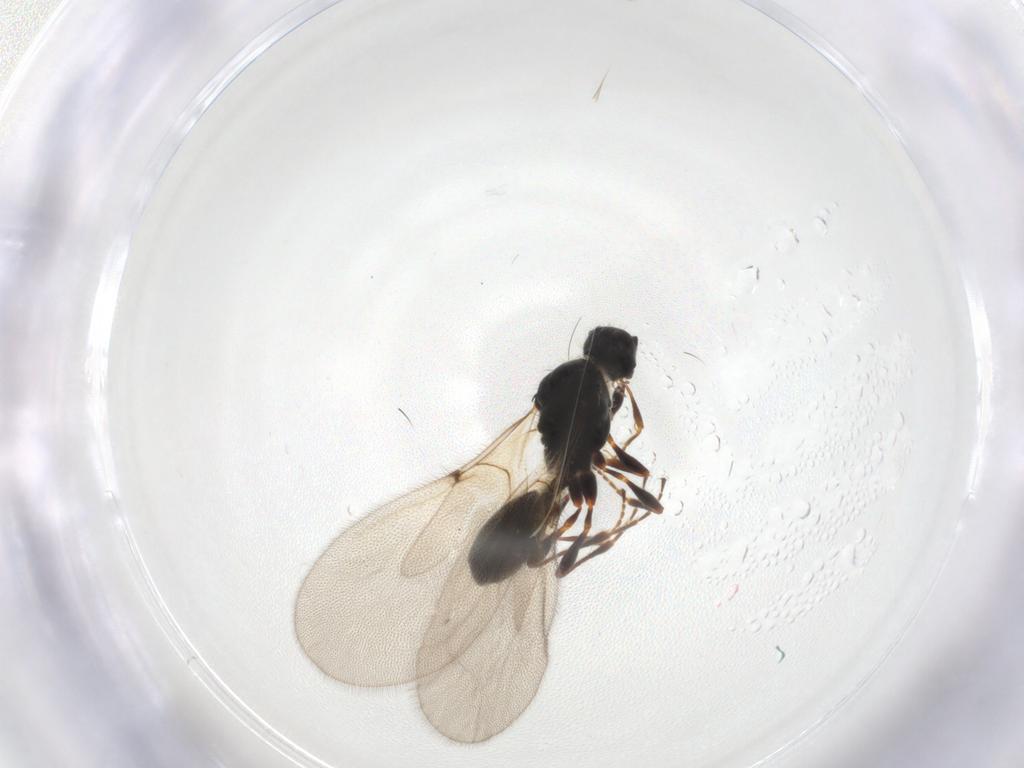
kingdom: Animalia
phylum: Arthropoda
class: Insecta
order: Hymenoptera
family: Diapriidae
